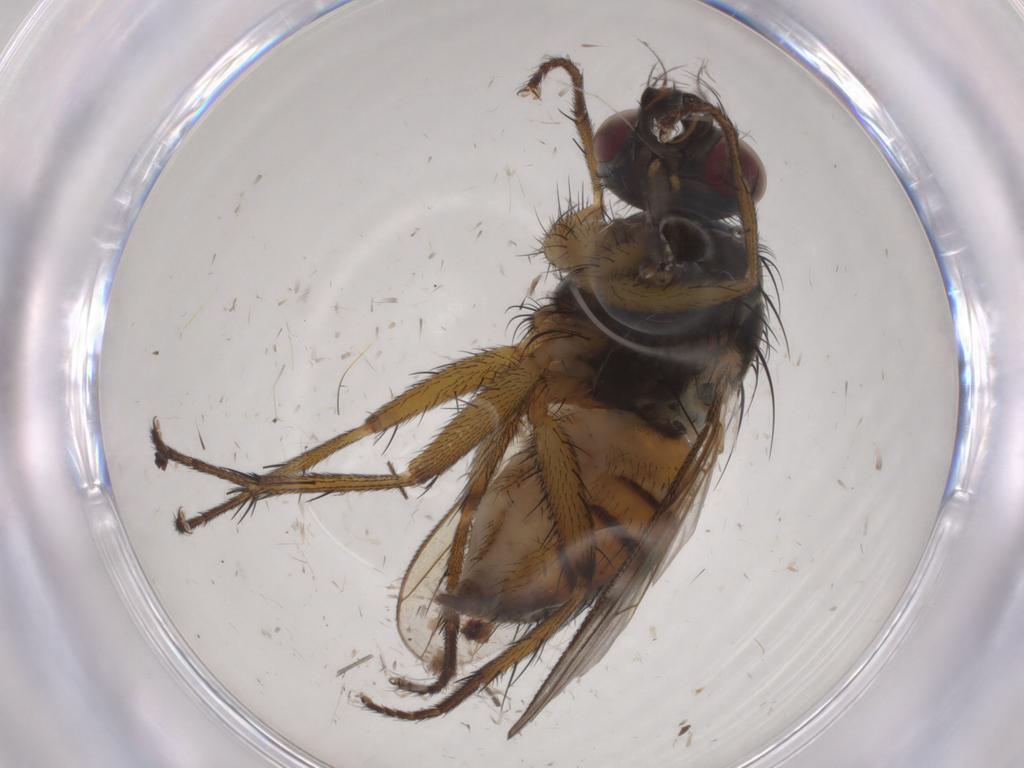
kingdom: Animalia
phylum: Arthropoda
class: Insecta
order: Diptera
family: Muscidae
